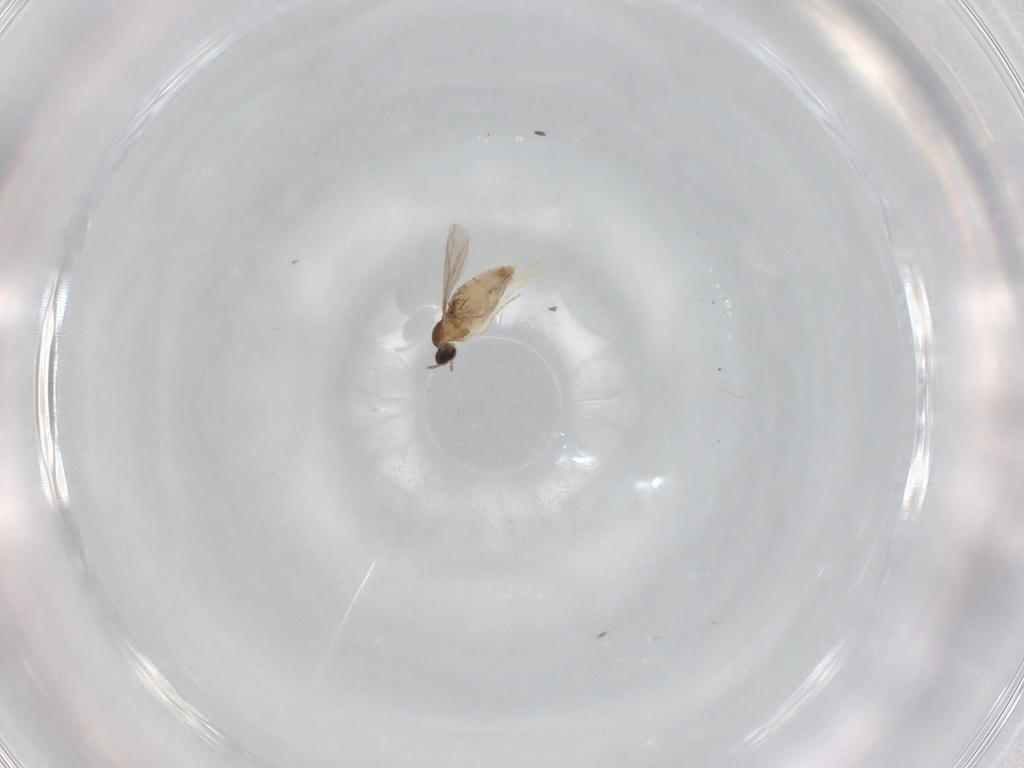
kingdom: Animalia
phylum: Arthropoda
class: Insecta
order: Diptera
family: Cecidomyiidae
